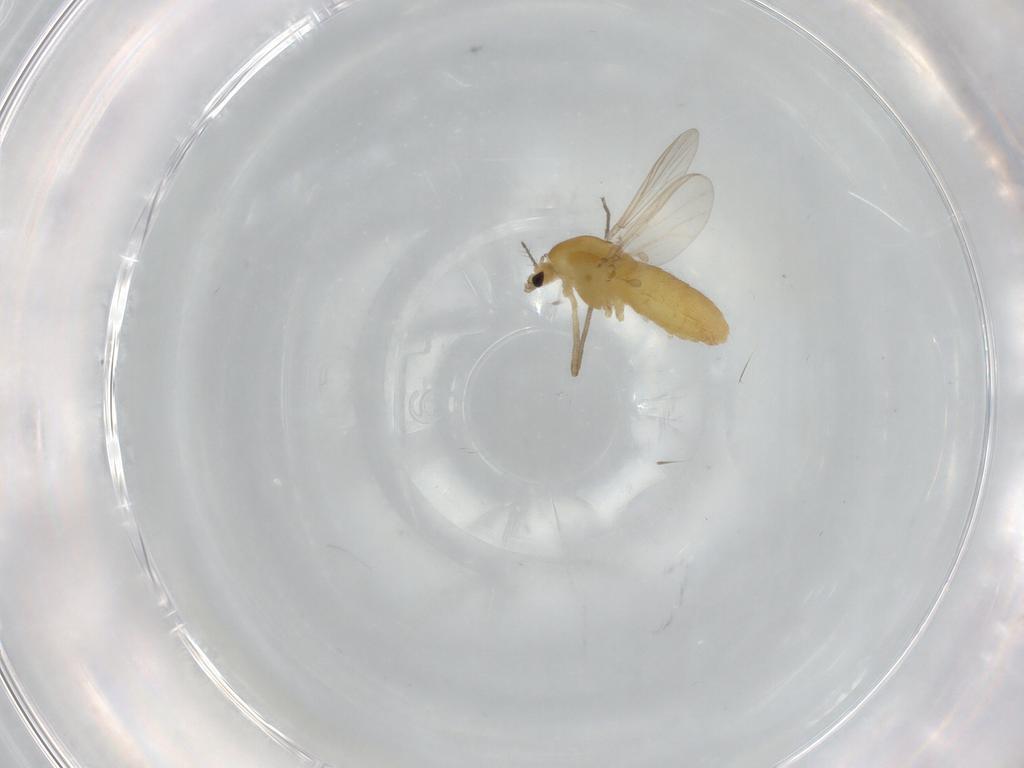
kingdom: Animalia
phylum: Arthropoda
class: Insecta
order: Diptera
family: Chironomidae
